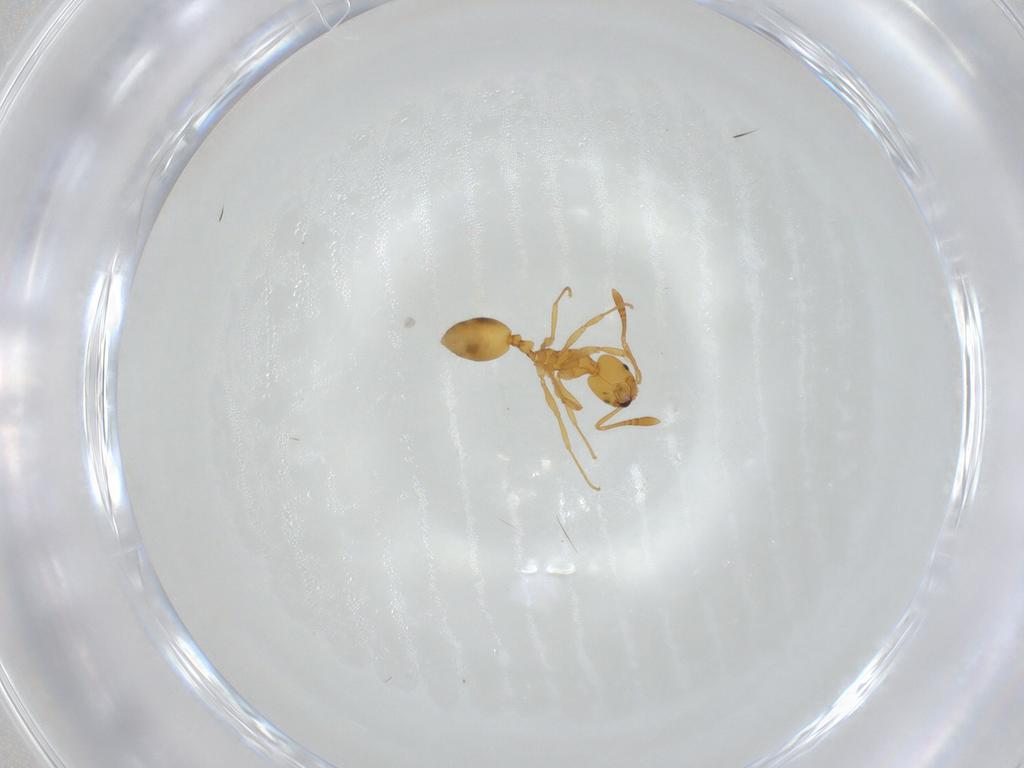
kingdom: Animalia
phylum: Arthropoda
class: Insecta
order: Hymenoptera
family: Formicidae
